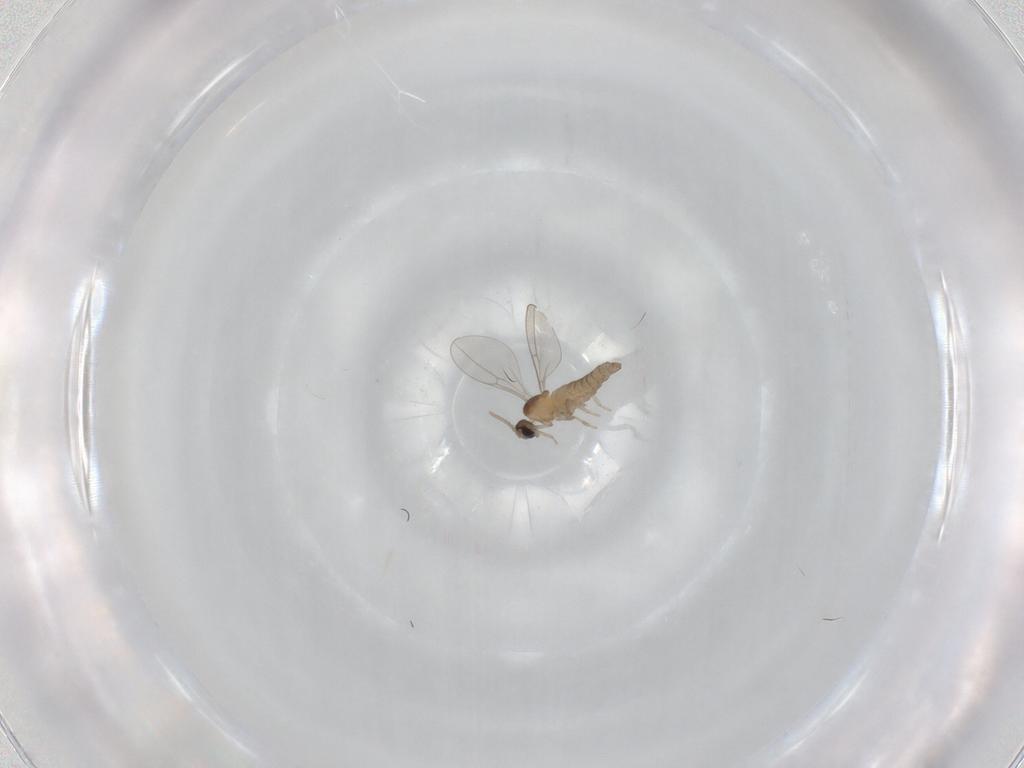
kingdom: Animalia
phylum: Arthropoda
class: Insecta
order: Diptera
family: Cecidomyiidae
